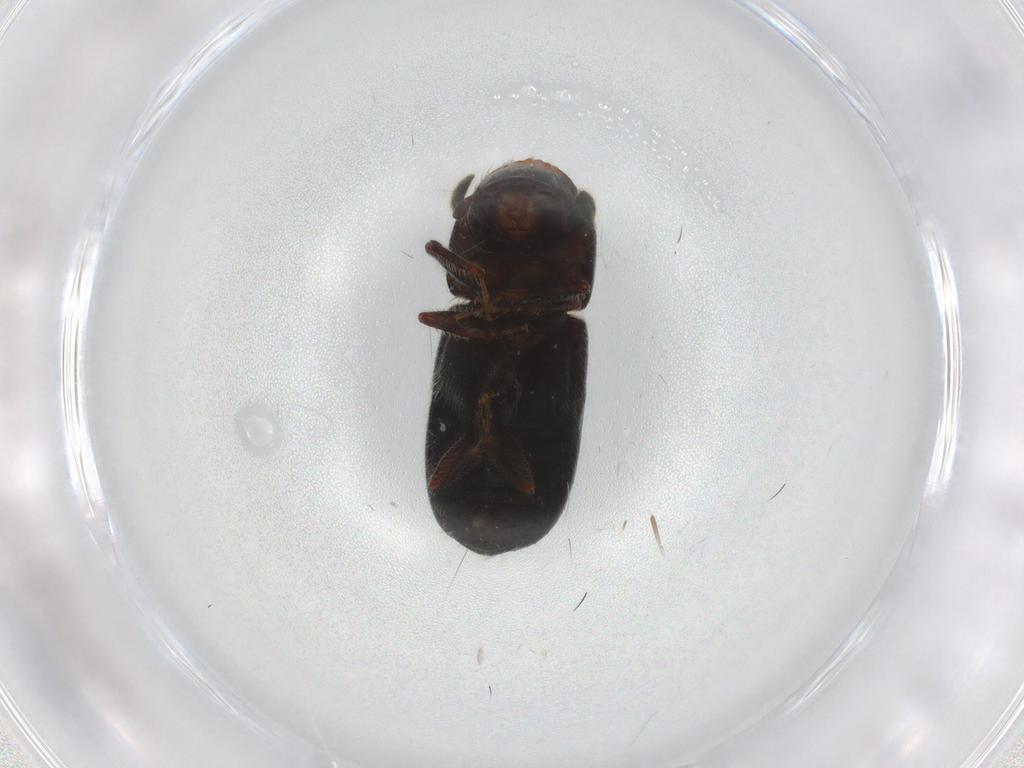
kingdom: Animalia
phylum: Arthropoda
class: Insecta
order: Coleoptera
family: Curculionidae
